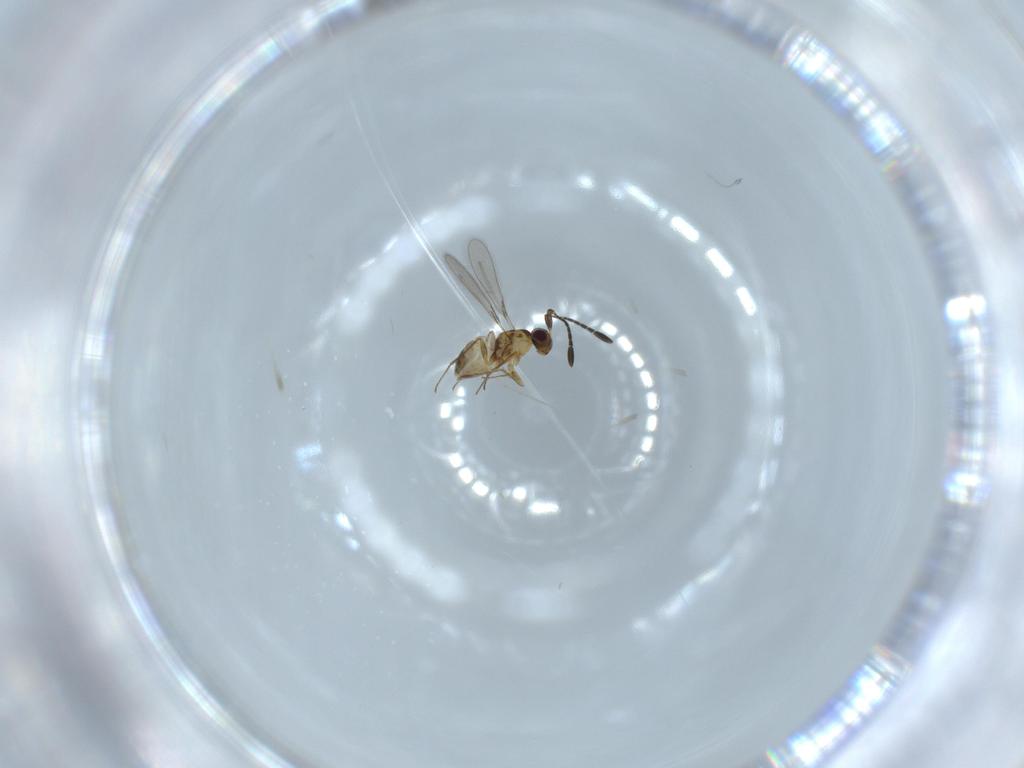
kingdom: Animalia
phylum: Arthropoda
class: Insecta
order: Hymenoptera
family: Mymaridae
